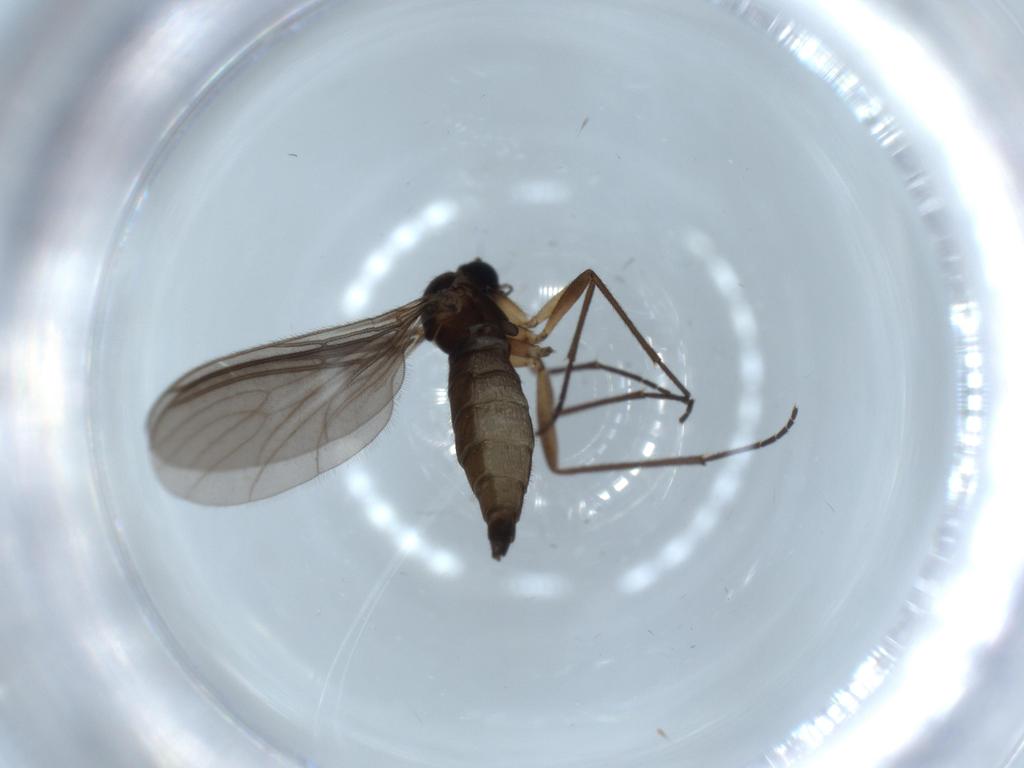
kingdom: Animalia
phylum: Arthropoda
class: Insecta
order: Diptera
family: Sciaridae
